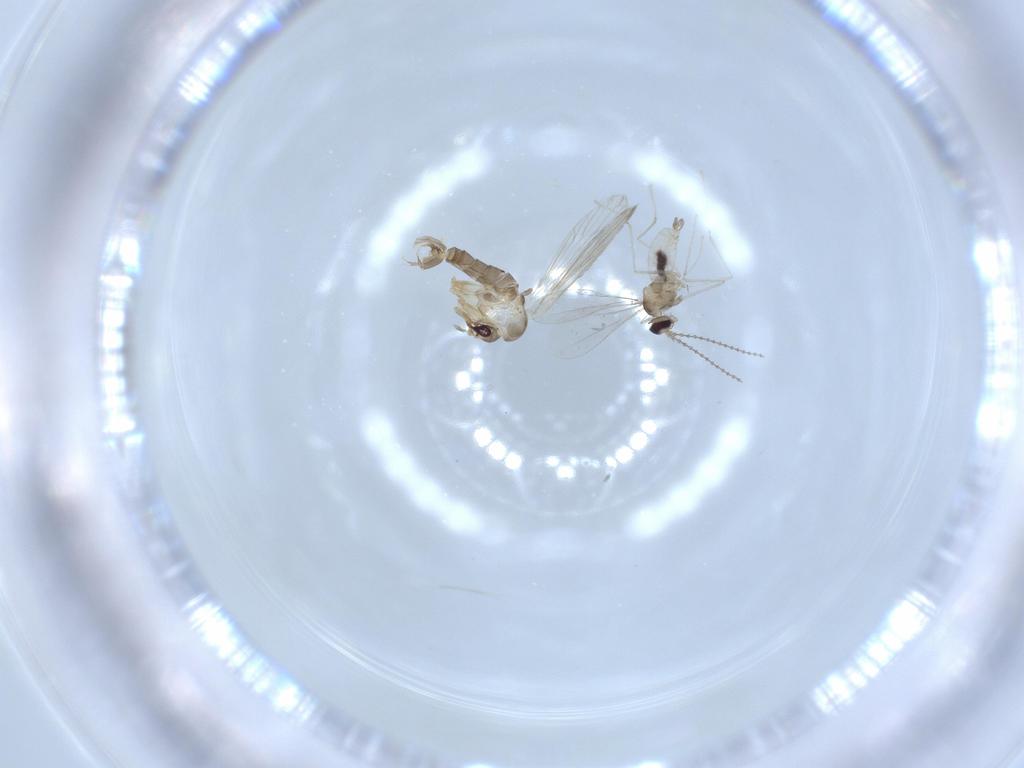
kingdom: Animalia
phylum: Arthropoda
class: Insecta
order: Diptera
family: Psychodidae
